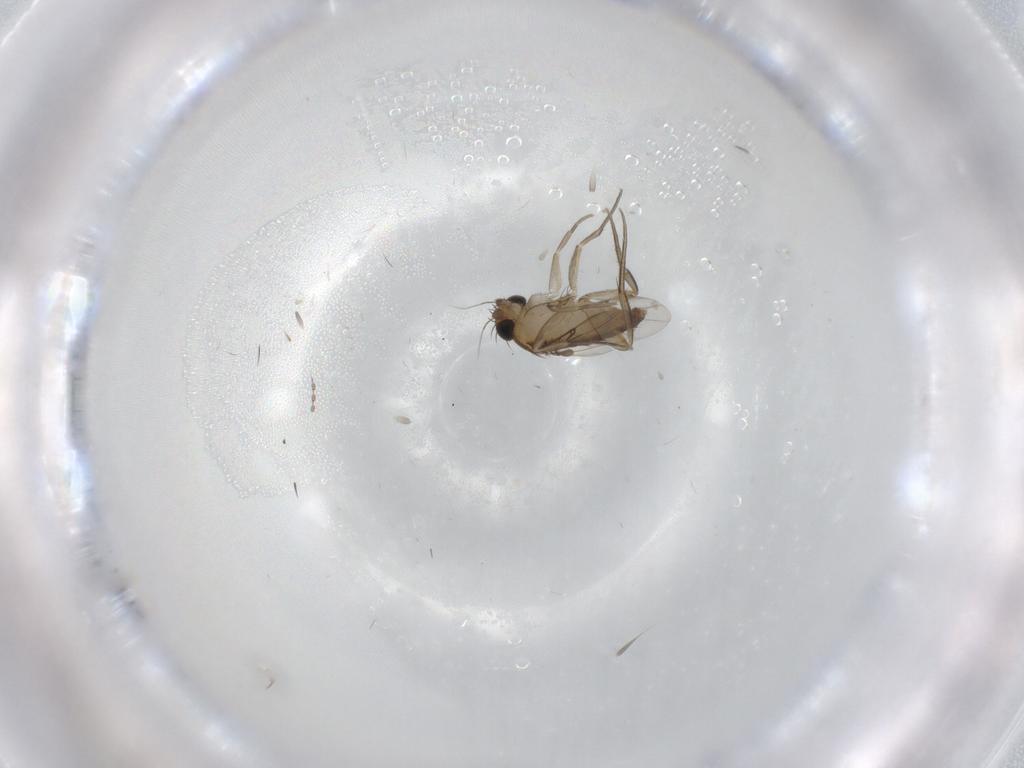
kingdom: Animalia
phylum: Arthropoda
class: Insecta
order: Diptera
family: Phoridae
